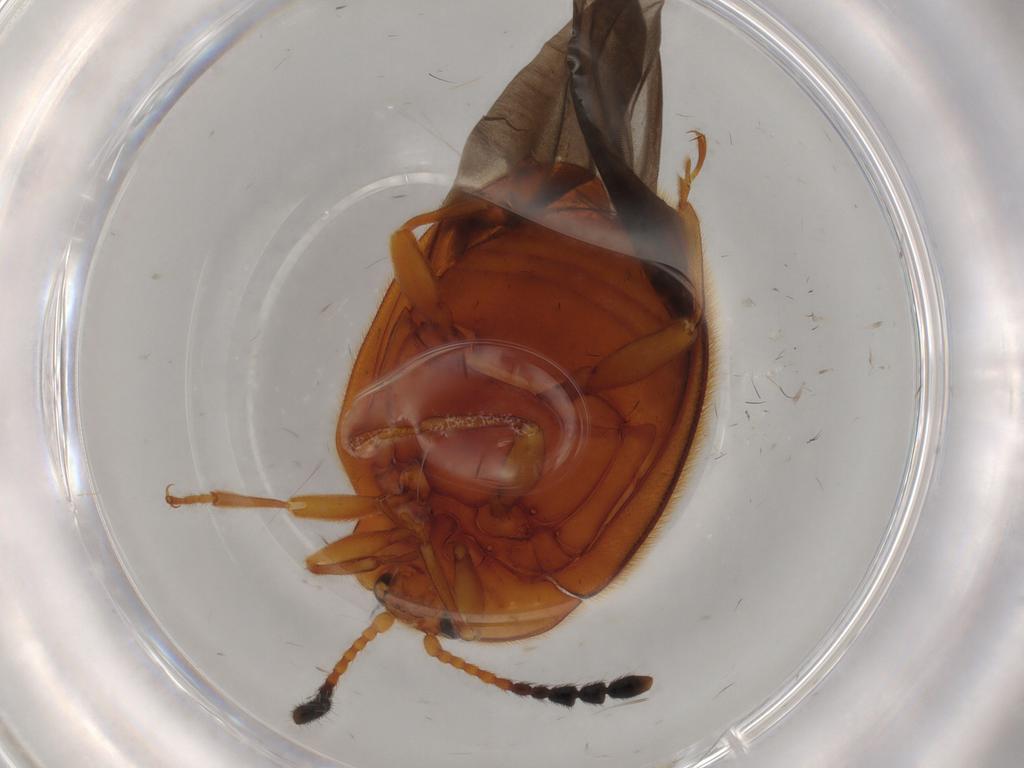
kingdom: Animalia
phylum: Arthropoda
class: Insecta
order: Coleoptera
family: Endomychidae
